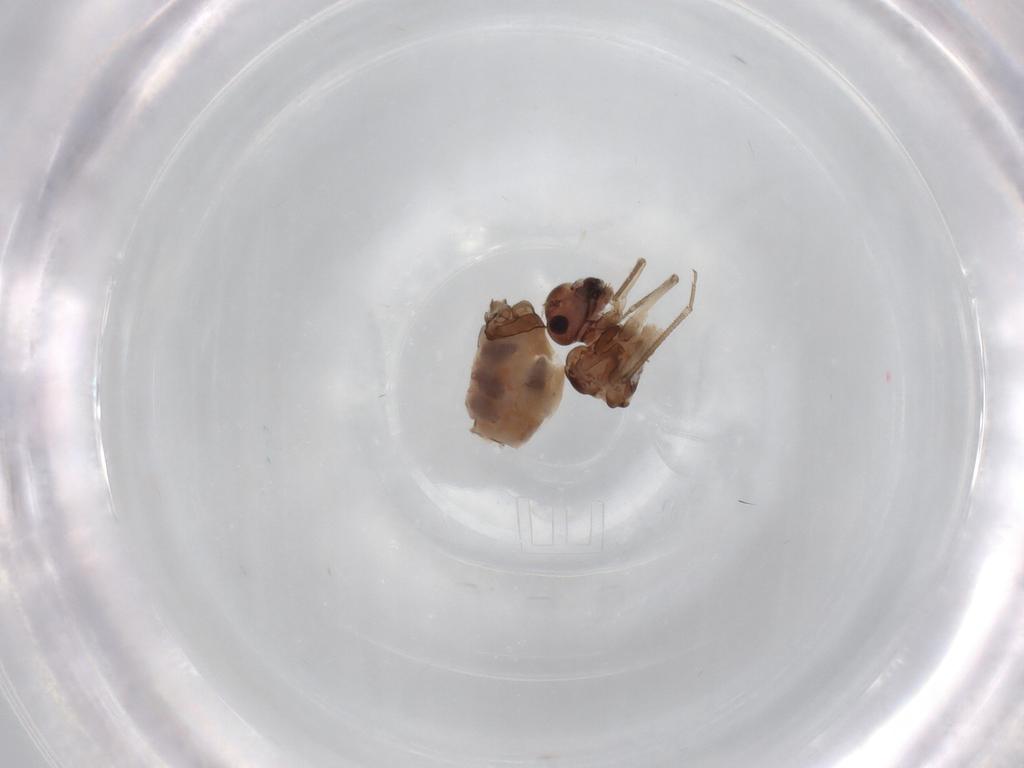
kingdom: Animalia
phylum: Arthropoda
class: Insecta
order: Psocodea
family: Peripsocidae
